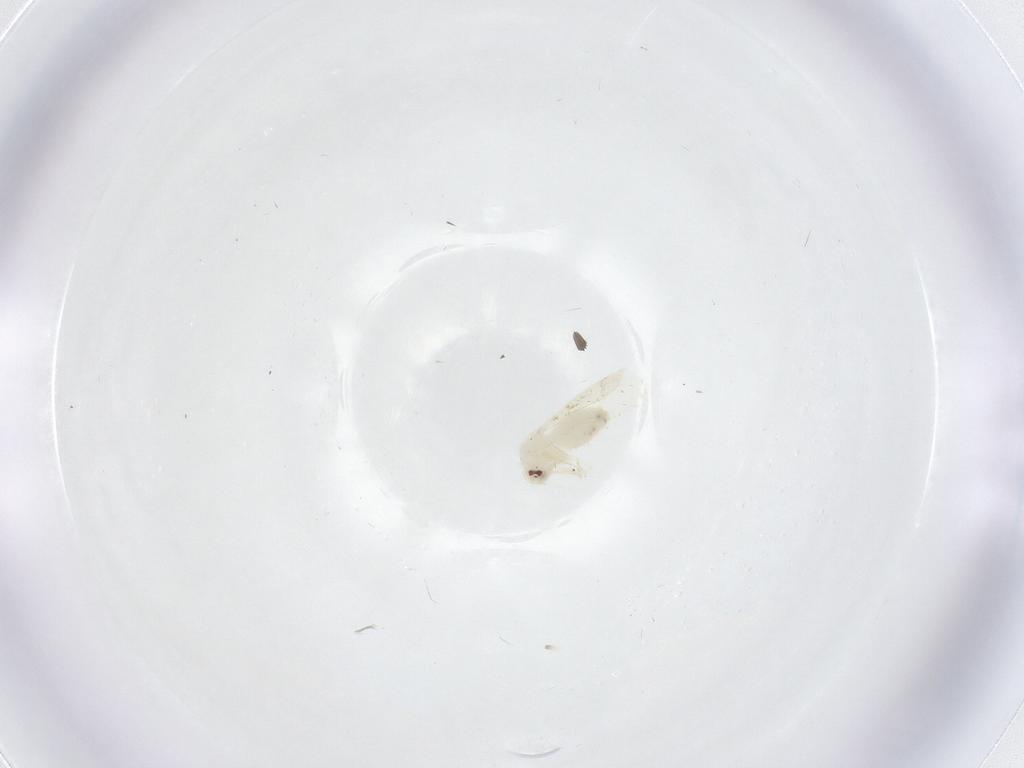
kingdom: Animalia
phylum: Arthropoda
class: Insecta
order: Hemiptera
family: Aleyrodidae
